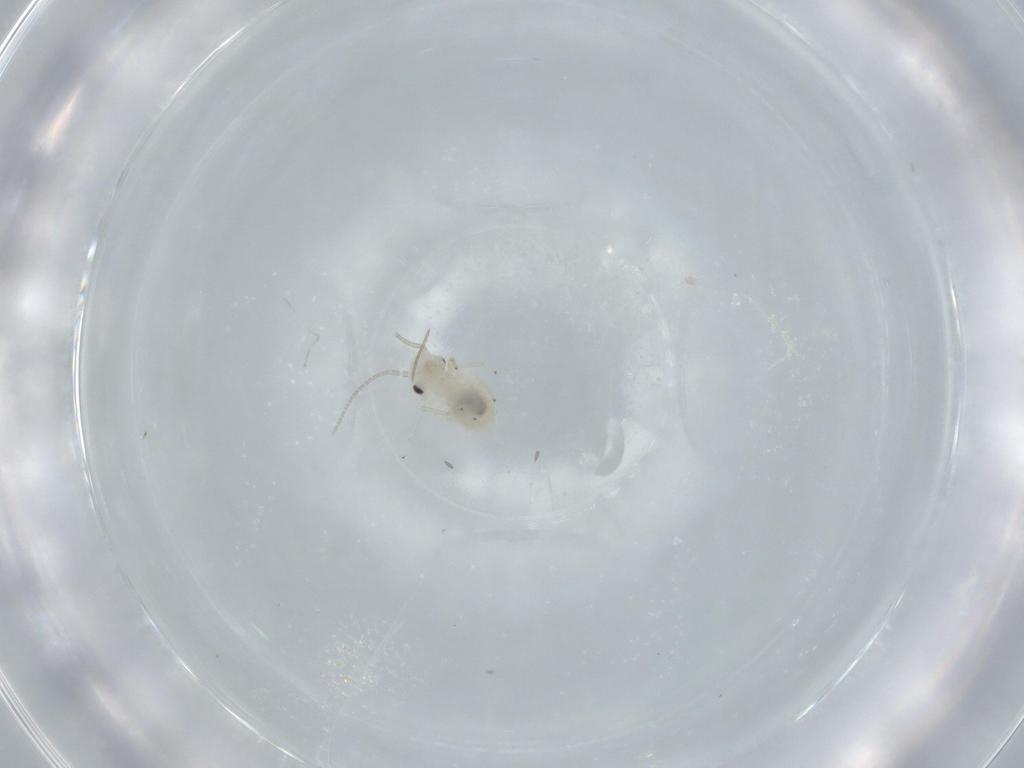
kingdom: Animalia
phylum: Arthropoda
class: Insecta
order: Psocodea
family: Caeciliusidae
